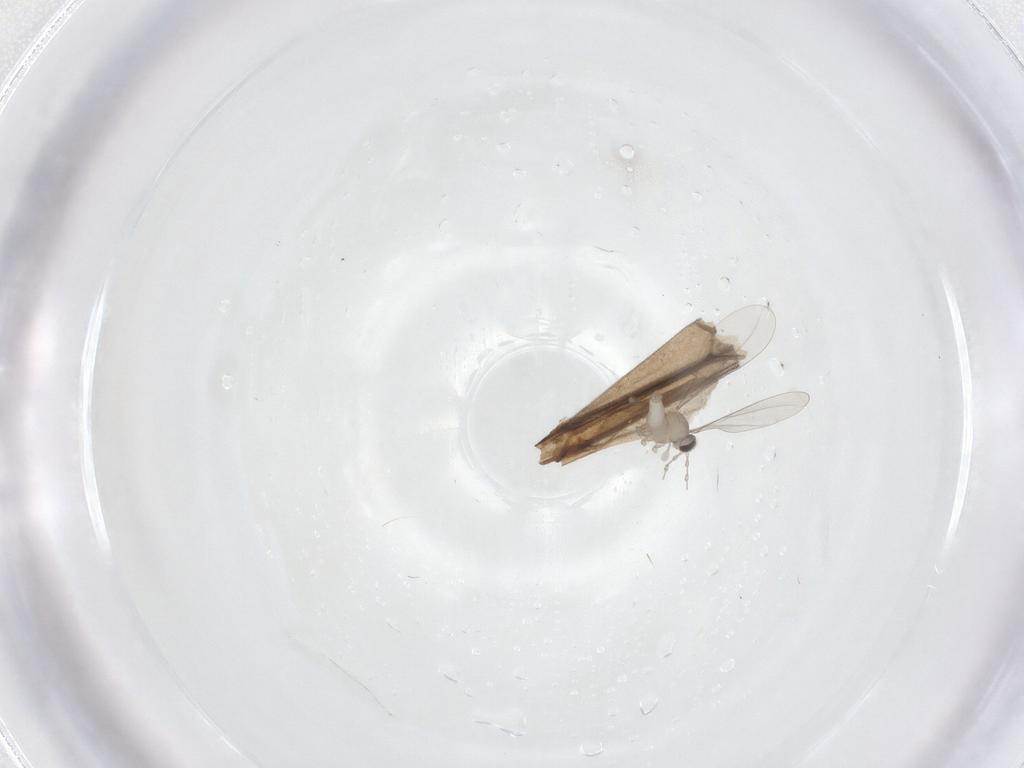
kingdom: Animalia
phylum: Arthropoda
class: Insecta
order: Diptera
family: Cecidomyiidae
